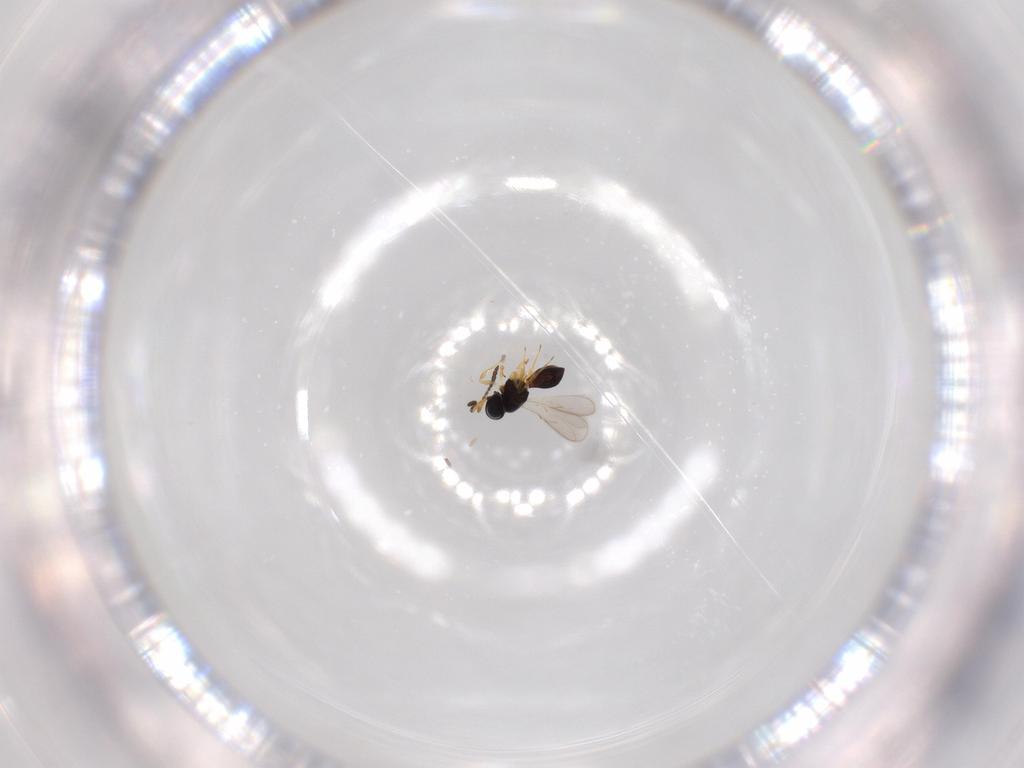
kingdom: Animalia
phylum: Arthropoda
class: Insecta
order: Hymenoptera
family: Scelionidae
